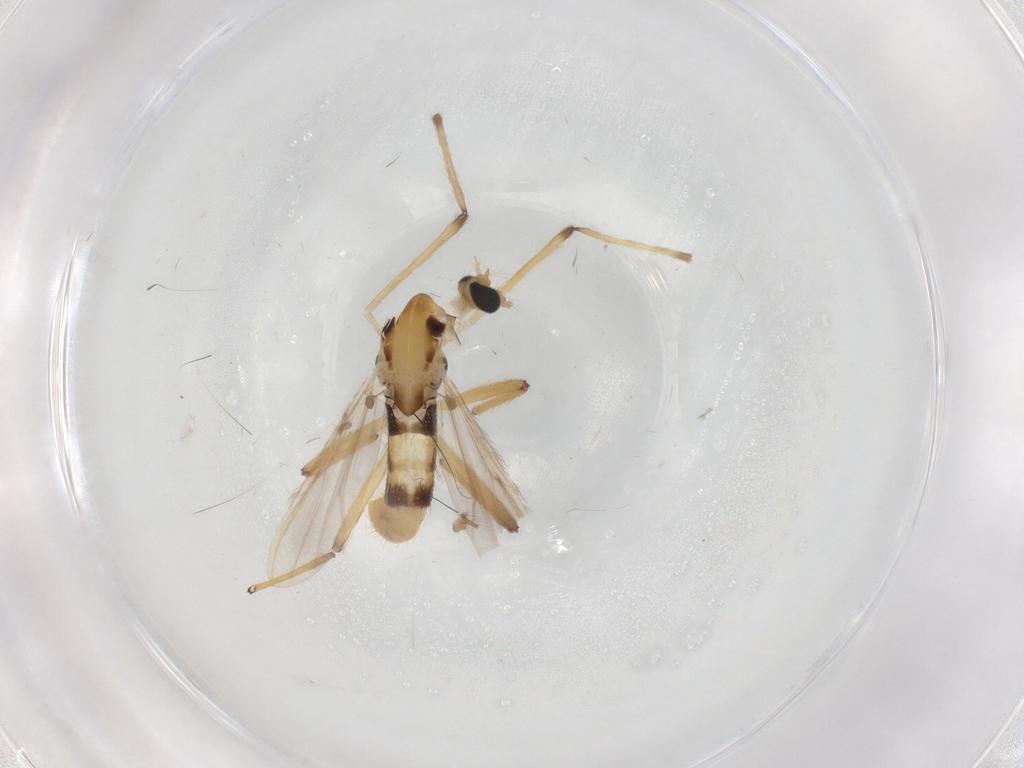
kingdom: Animalia
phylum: Arthropoda
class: Insecta
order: Diptera
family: Chironomidae
